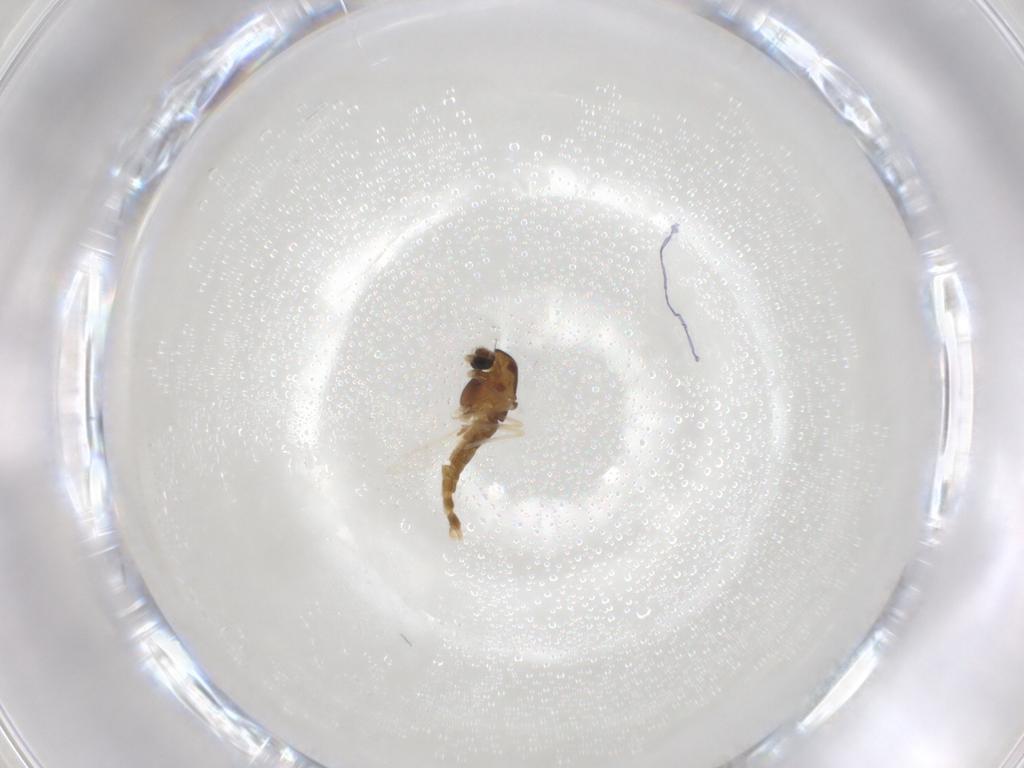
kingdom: Animalia
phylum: Arthropoda
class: Insecta
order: Diptera
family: Chironomidae
